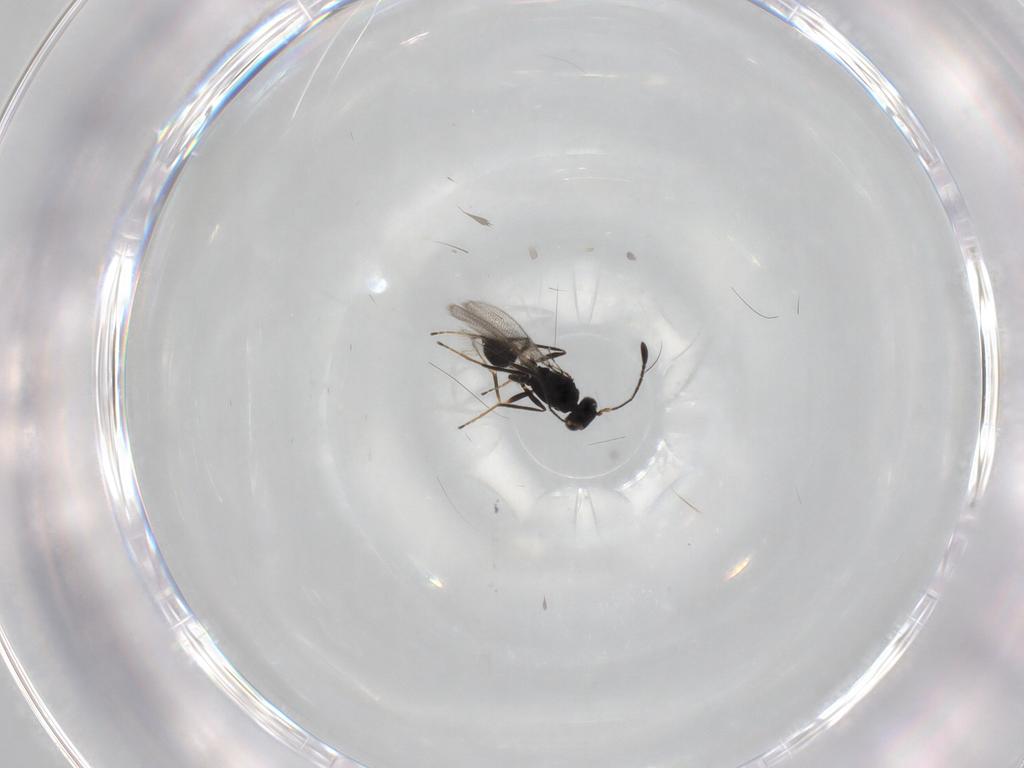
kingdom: Animalia
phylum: Arthropoda
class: Insecta
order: Hymenoptera
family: Mymaridae
